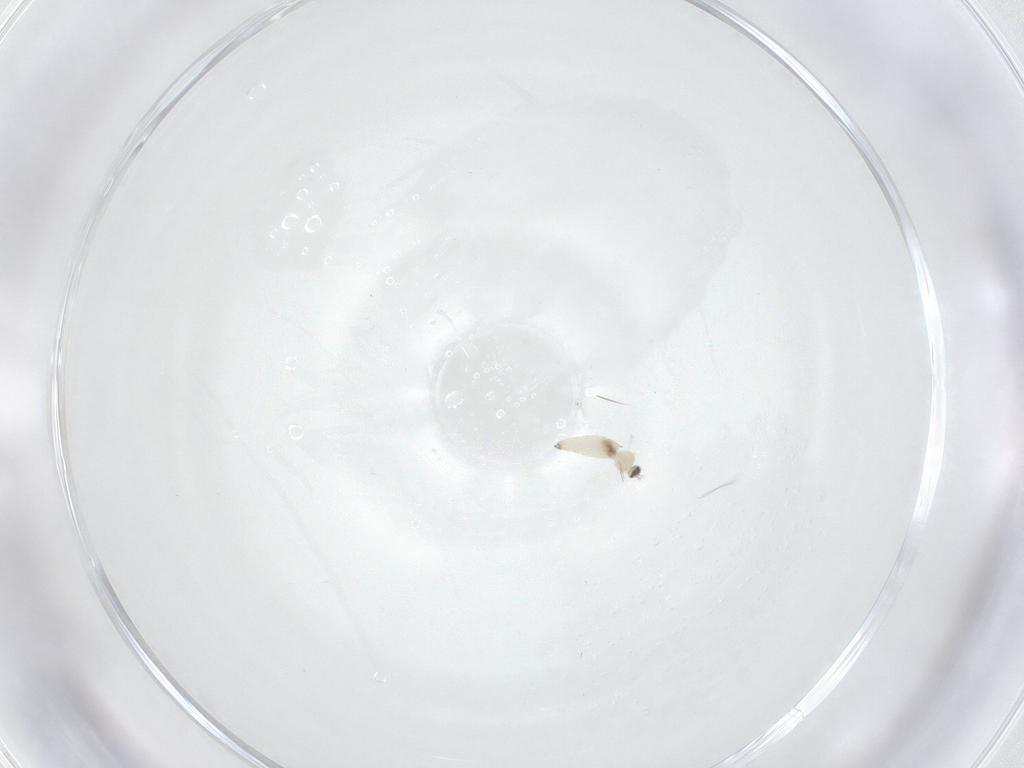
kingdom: Animalia
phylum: Arthropoda
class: Insecta
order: Diptera
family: Cecidomyiidae
